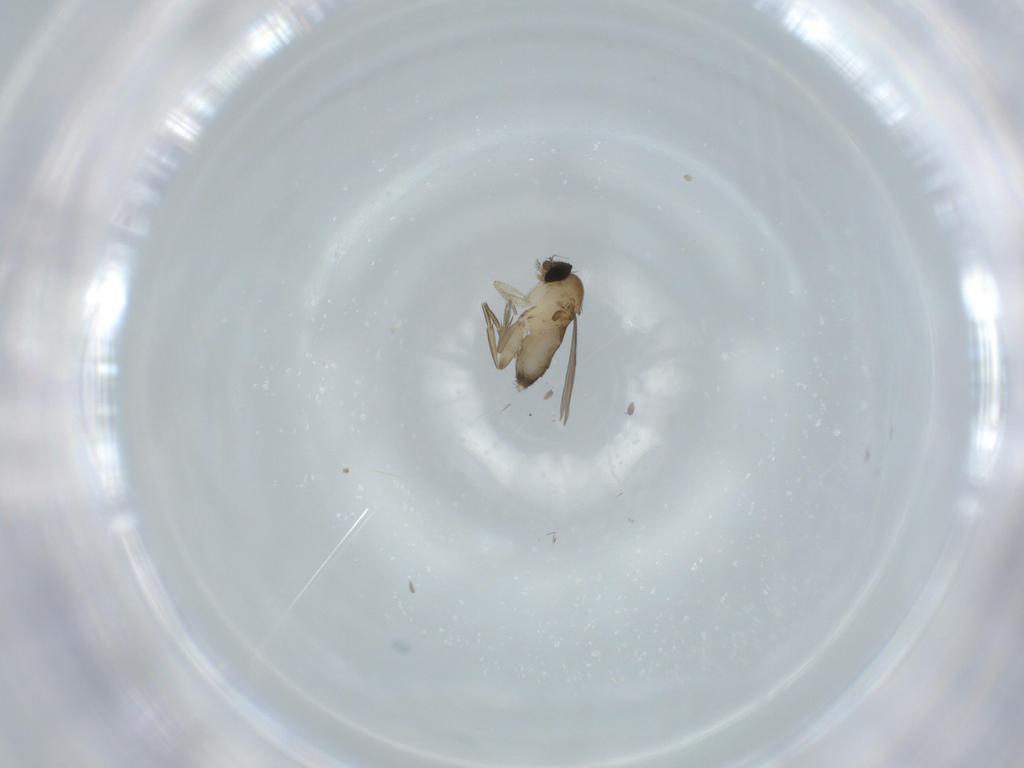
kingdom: Animalia
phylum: Arthropoda
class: Insecta
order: Diptera
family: Phoridae
